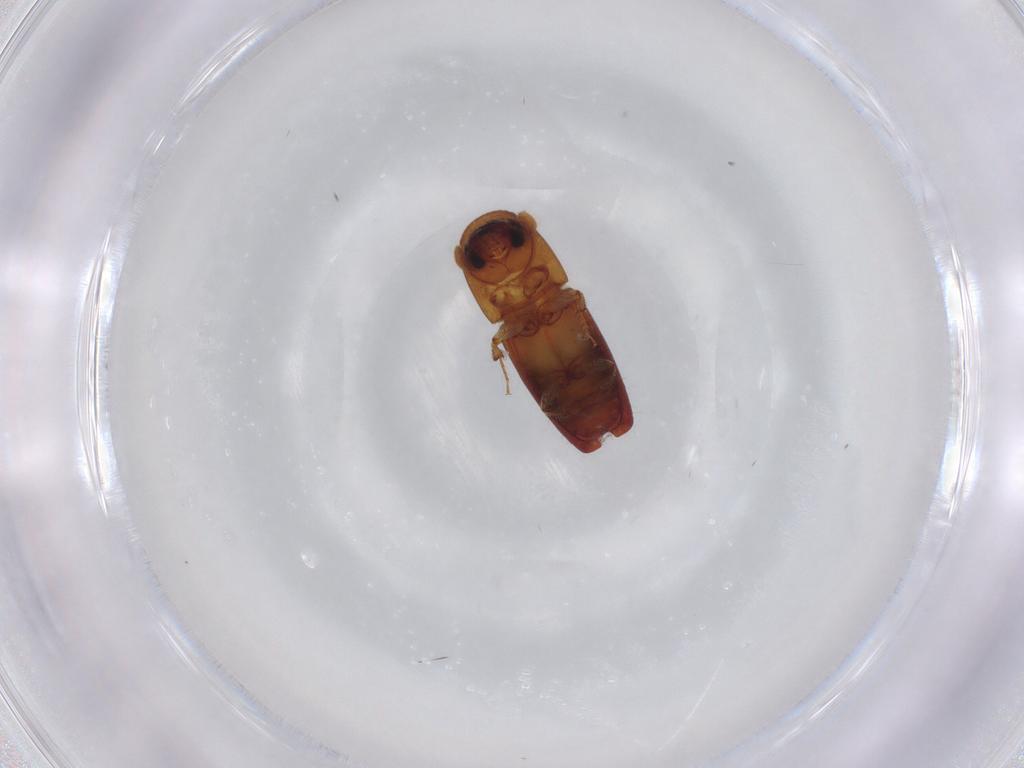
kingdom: Animalia
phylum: Arthropoda
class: Insecta
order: Coleoptera
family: Curculionidae
